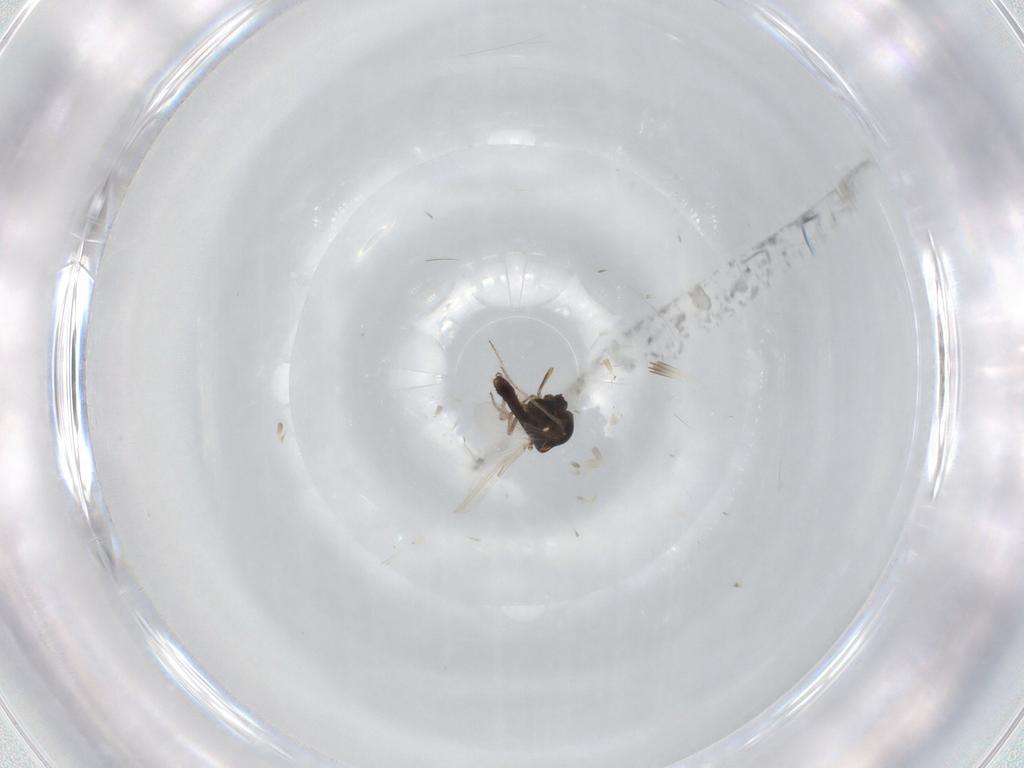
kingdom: Animalia
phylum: Arthropoda
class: Insecta
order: Diptera
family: Ceratopogonidae
